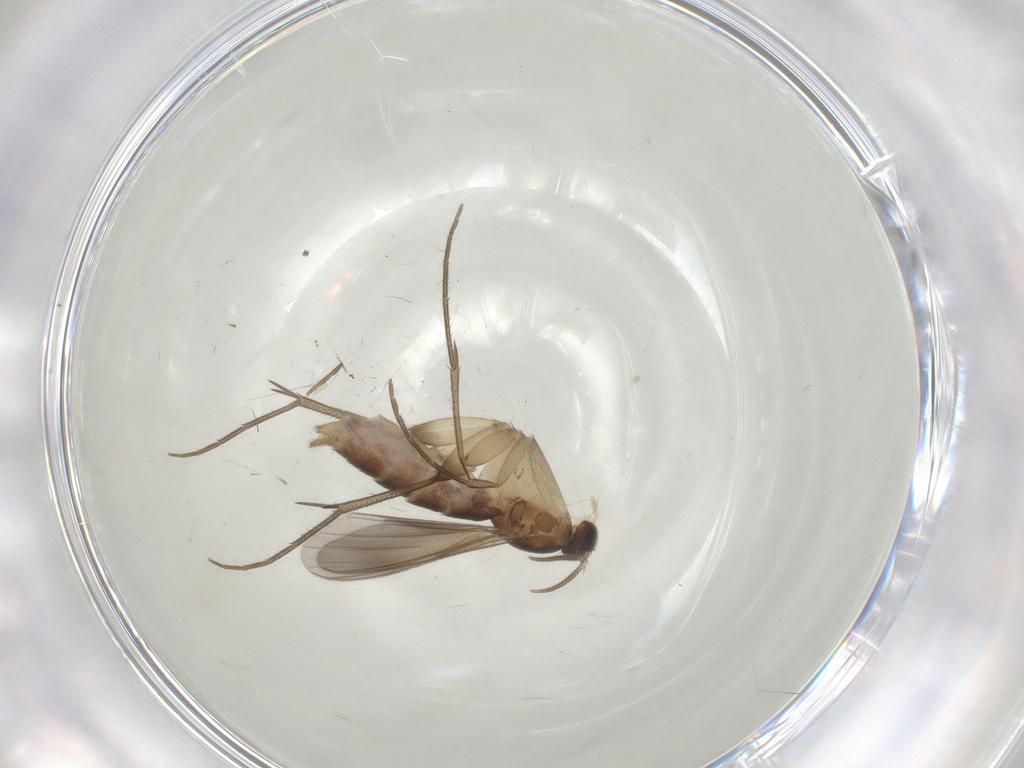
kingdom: Animalia
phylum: Arthropoda
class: Insecta
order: Diptera
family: Mycetophilidae
